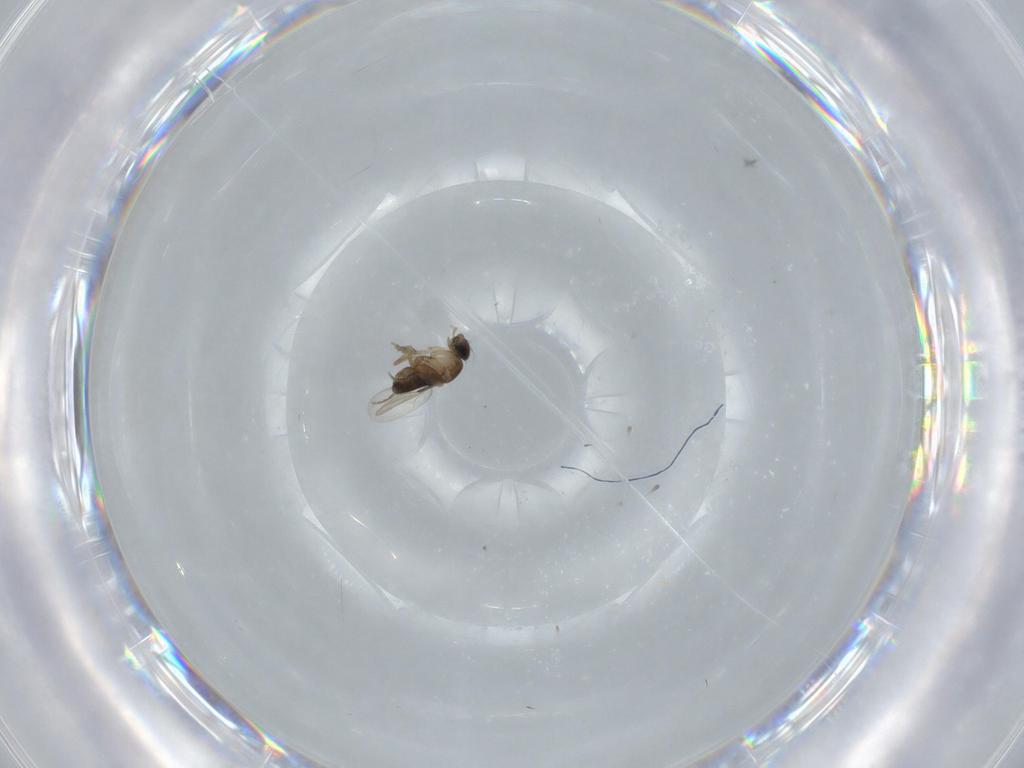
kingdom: Animalia
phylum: Arthropoda
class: Insecta
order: Diptera
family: Phoridae
